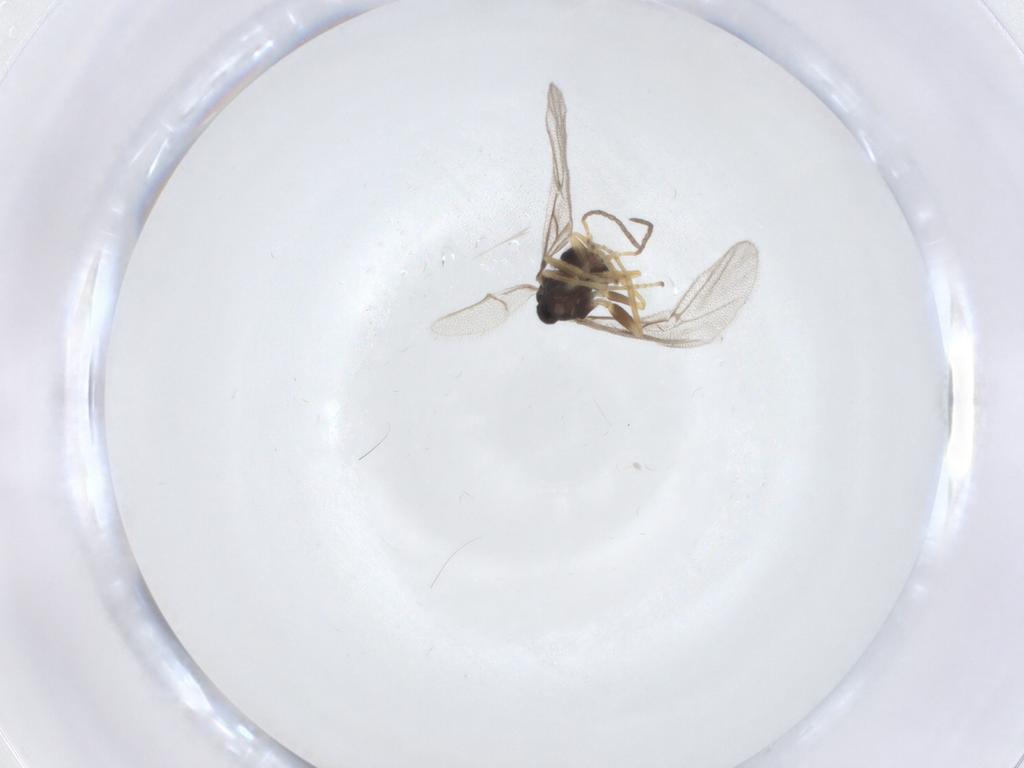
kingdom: Animalia
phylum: Arthropoda
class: Insecta
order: Hymenoptera
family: Cynipidae
